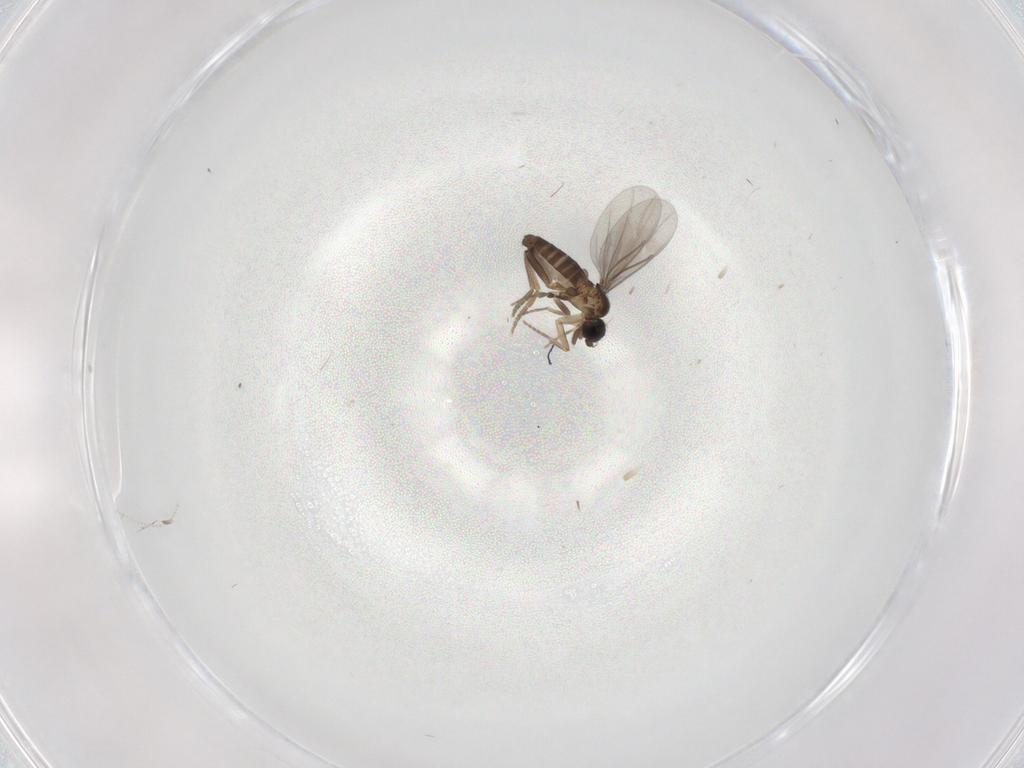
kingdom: Animalia
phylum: Arthropoda
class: Insecta
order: Diptera
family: Cecidomyiidae
